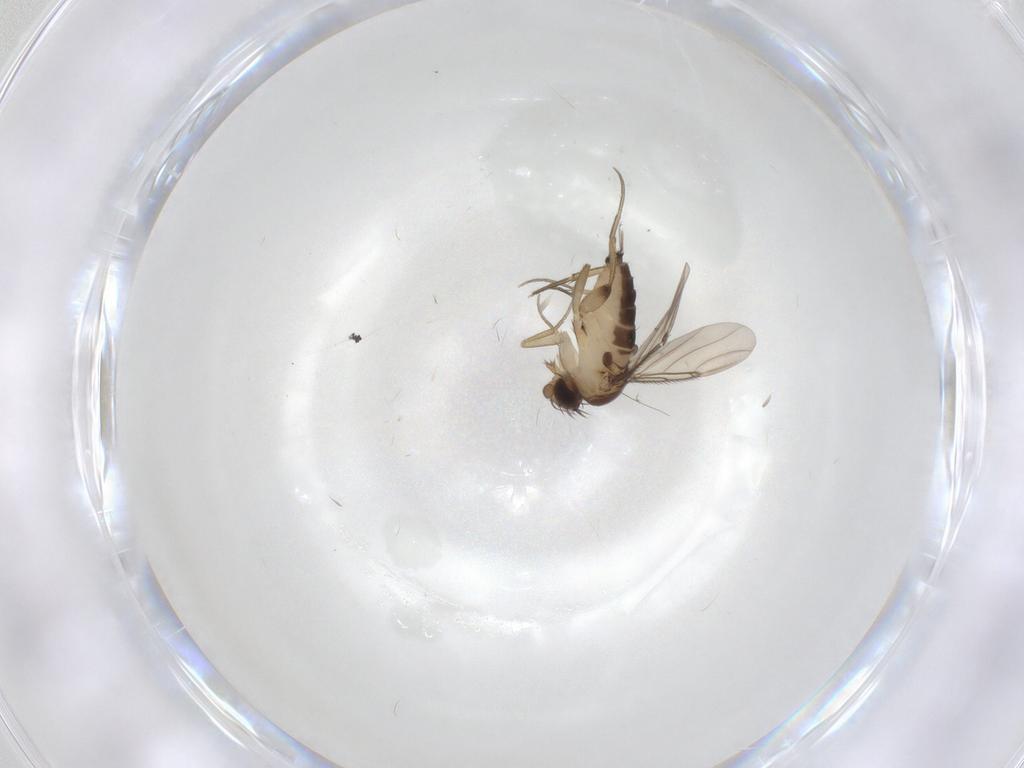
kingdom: Animalia
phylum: Arthropoda
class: Insecta
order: Diptera
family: Phoridae
